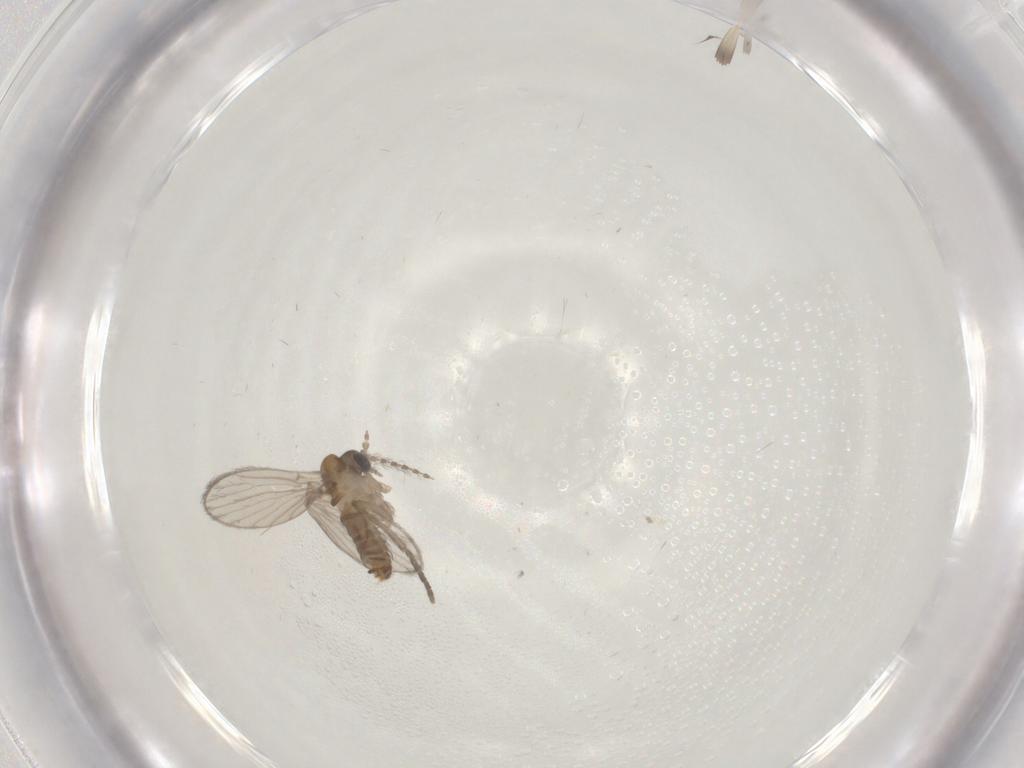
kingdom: Animalia
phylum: Arthropoda
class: Insecta
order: Diptera
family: Psychodidae
